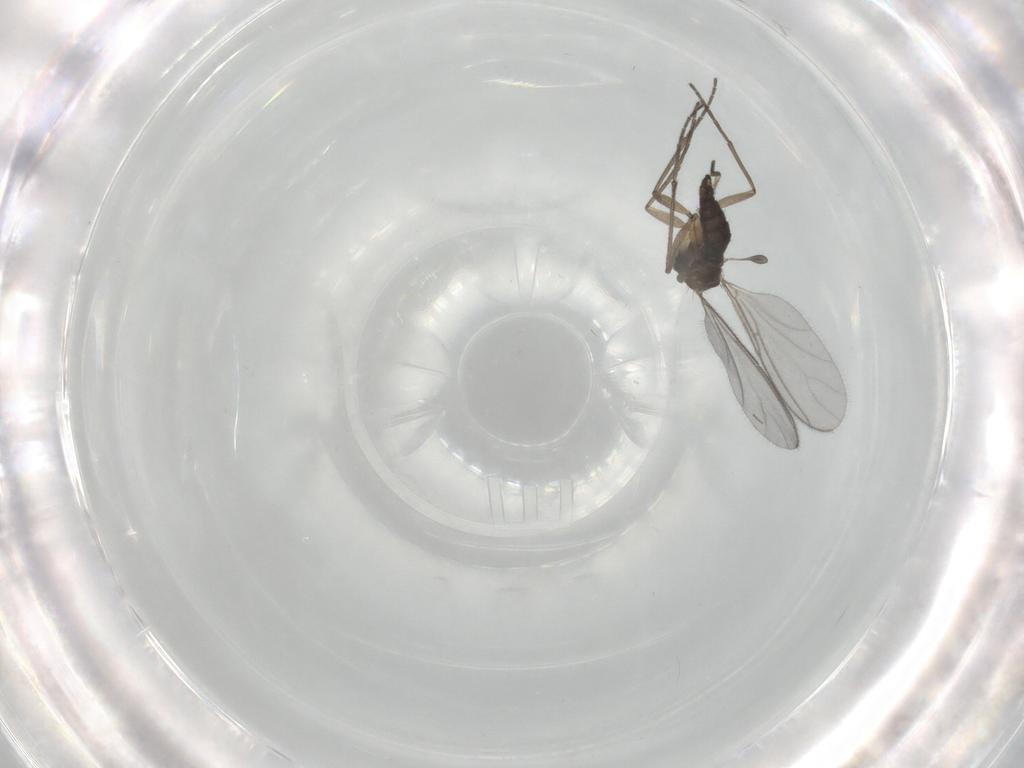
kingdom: Animalia
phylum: Arthropoda
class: Insecta
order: Diptera
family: Sciaridae
